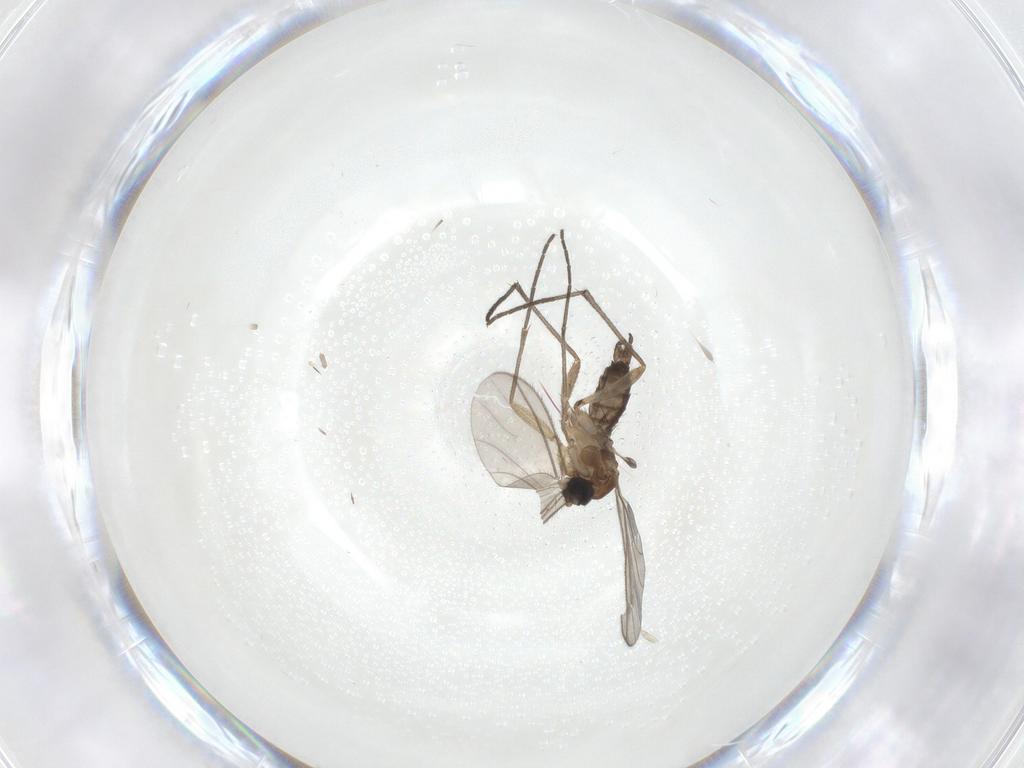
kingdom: Animalia
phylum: Arthropoda
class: Insecta
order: Diptera
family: Sciaridae
